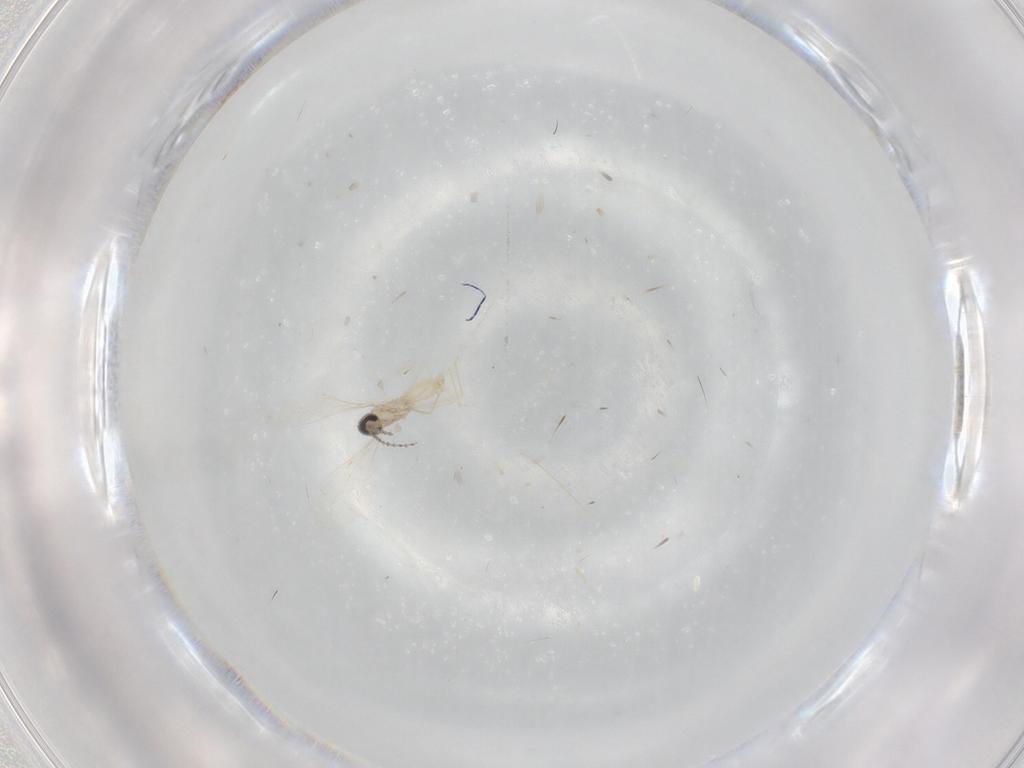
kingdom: Animalia
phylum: Arthropoda
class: Insecta
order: Diptera
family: Cecidomyiidae
